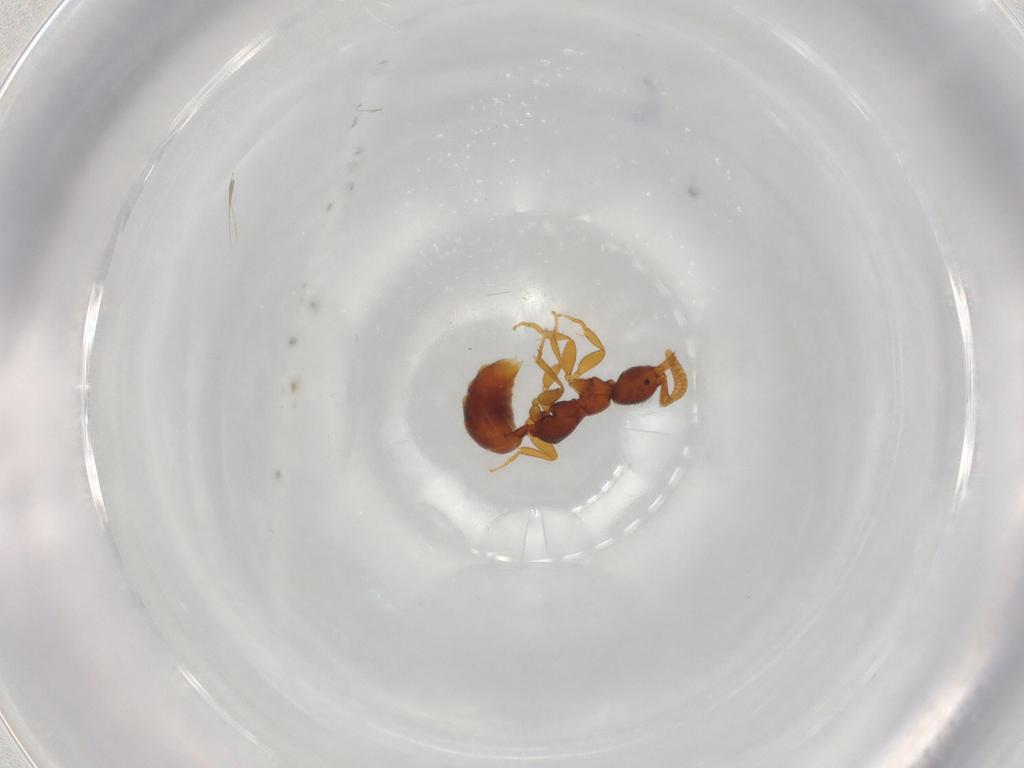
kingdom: Animalia
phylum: Arthropoda
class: Insecta
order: Hymenoptera
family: Bethylidae
